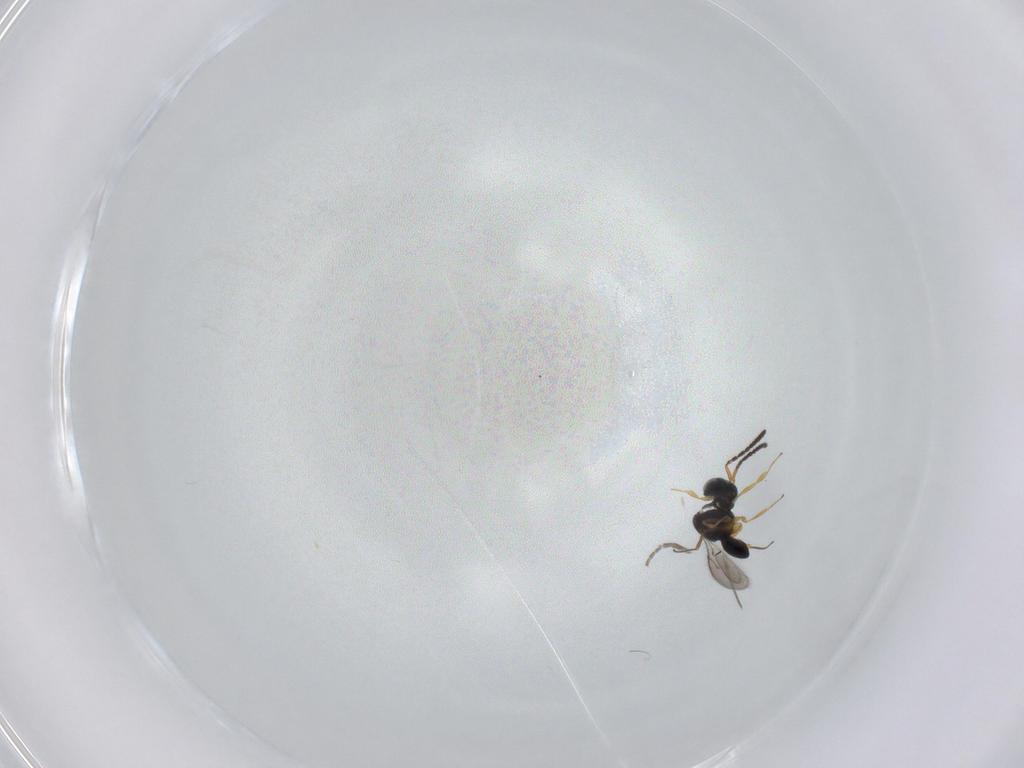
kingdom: Animalia
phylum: Arthropoda
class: Insecta
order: Hymenoptera
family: Scelionidae
